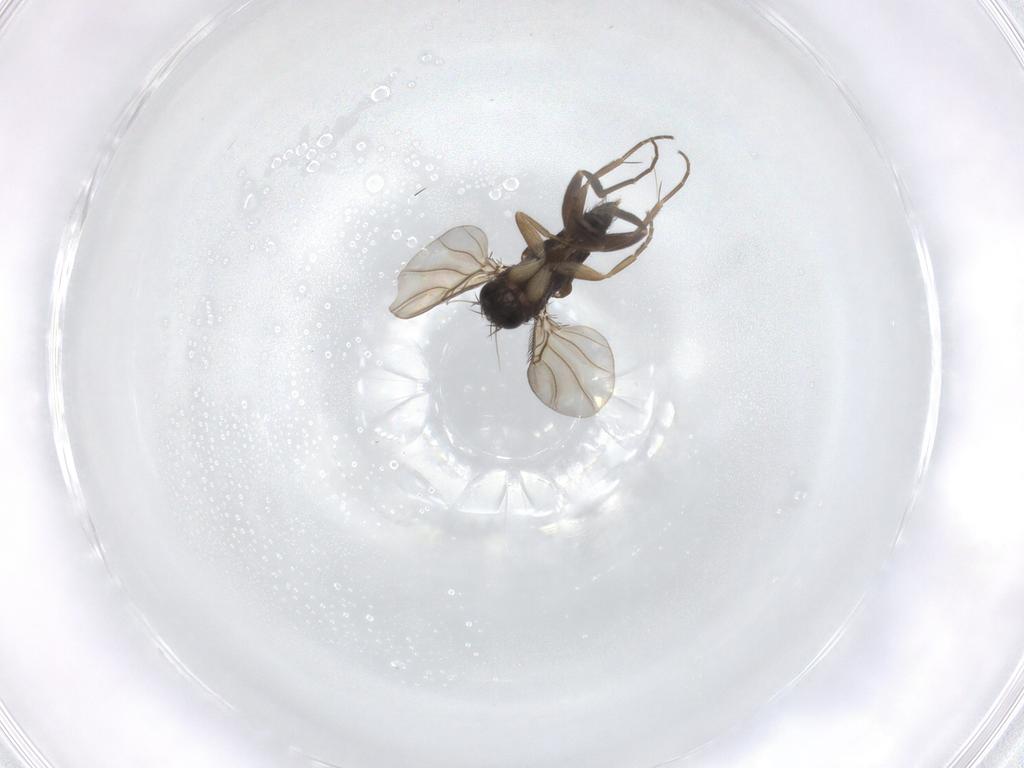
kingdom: Animalia
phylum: Arthropoda
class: Insecta
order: Diptera
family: Phoridae
